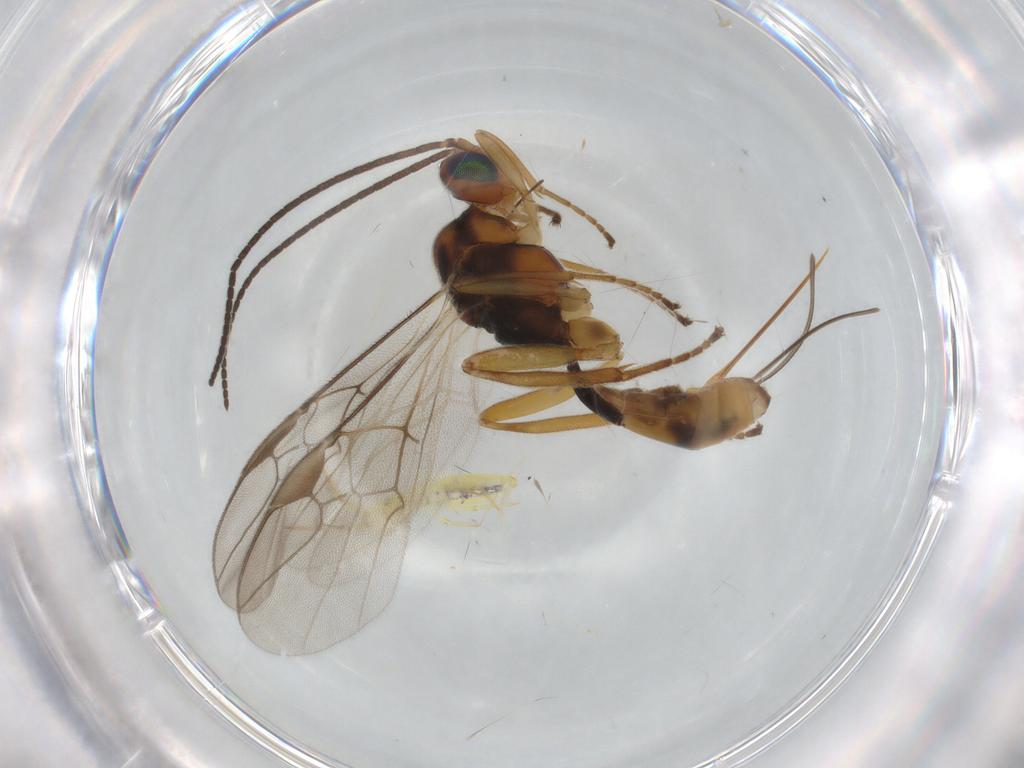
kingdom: Animalia
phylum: Arthropoda
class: Insecta
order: Hymenoptera
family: Braconidae
